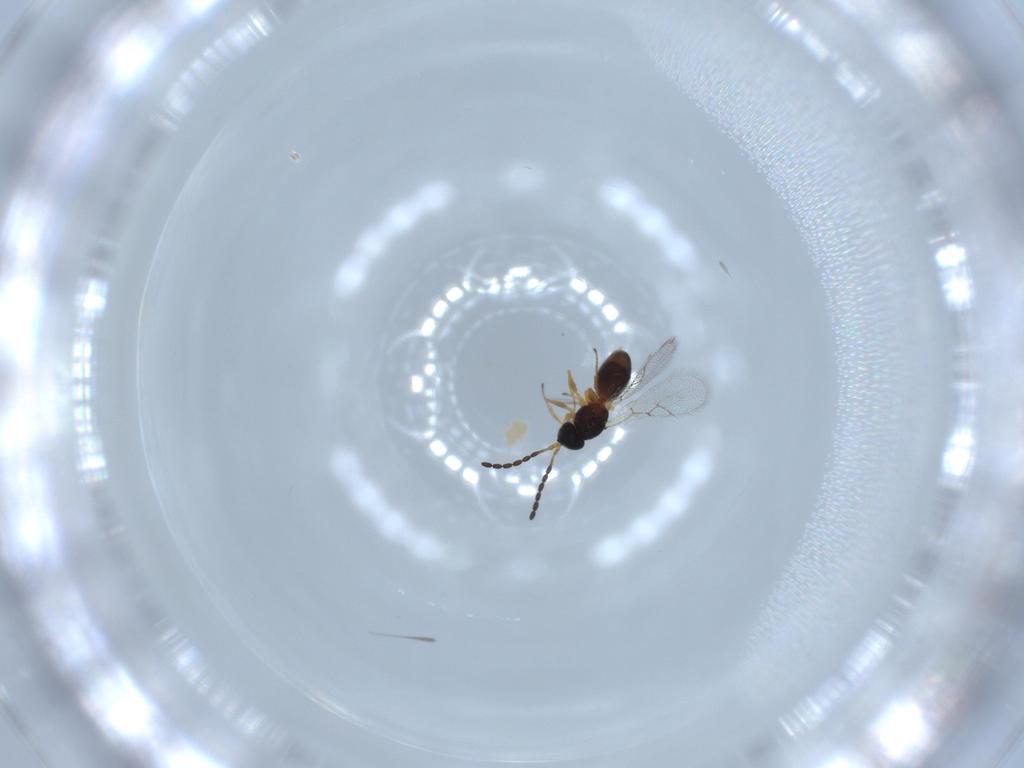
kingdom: Animalia
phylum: Arthropoda
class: Insecta
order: Hymenoptera
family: Figitidae
